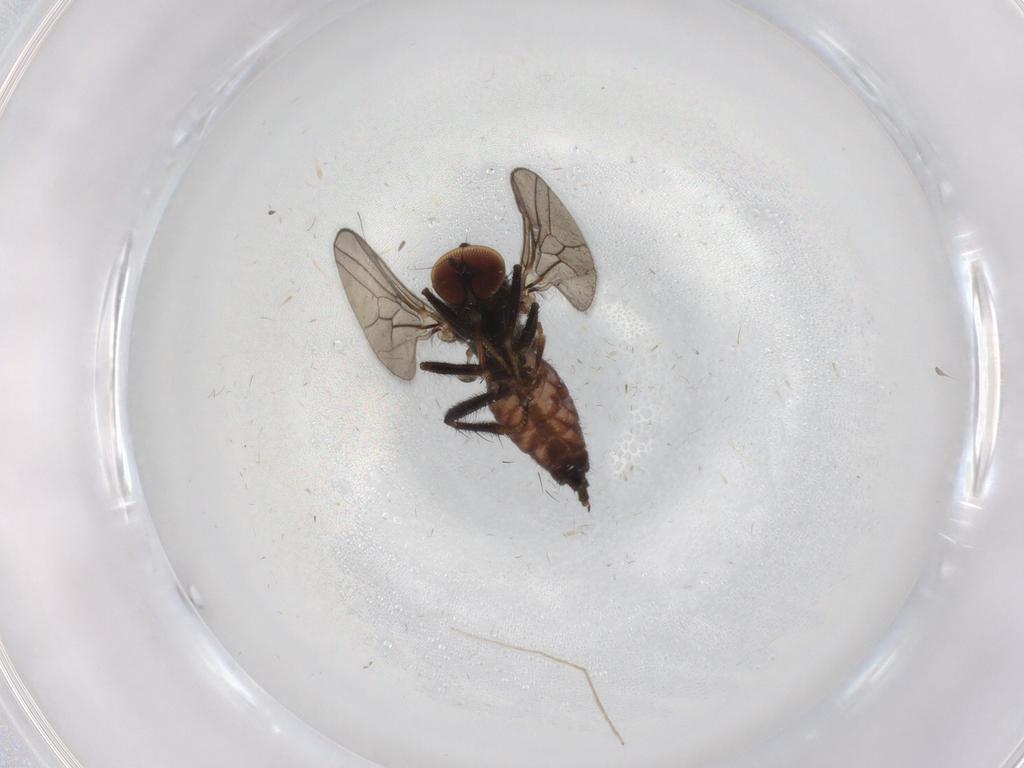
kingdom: Animalia
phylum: Arthropoda
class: Insecta
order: Diptera
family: Hybotidae
